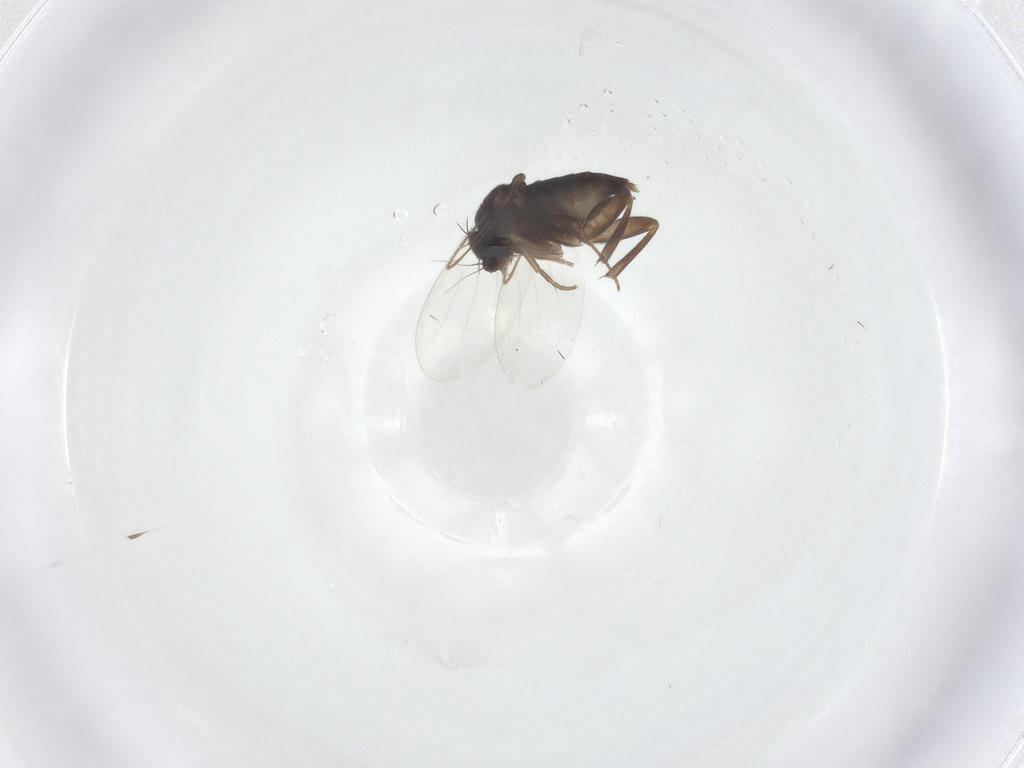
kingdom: Animalia
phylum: Arthropoda
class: Insecta
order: Diptera
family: Phoridae
